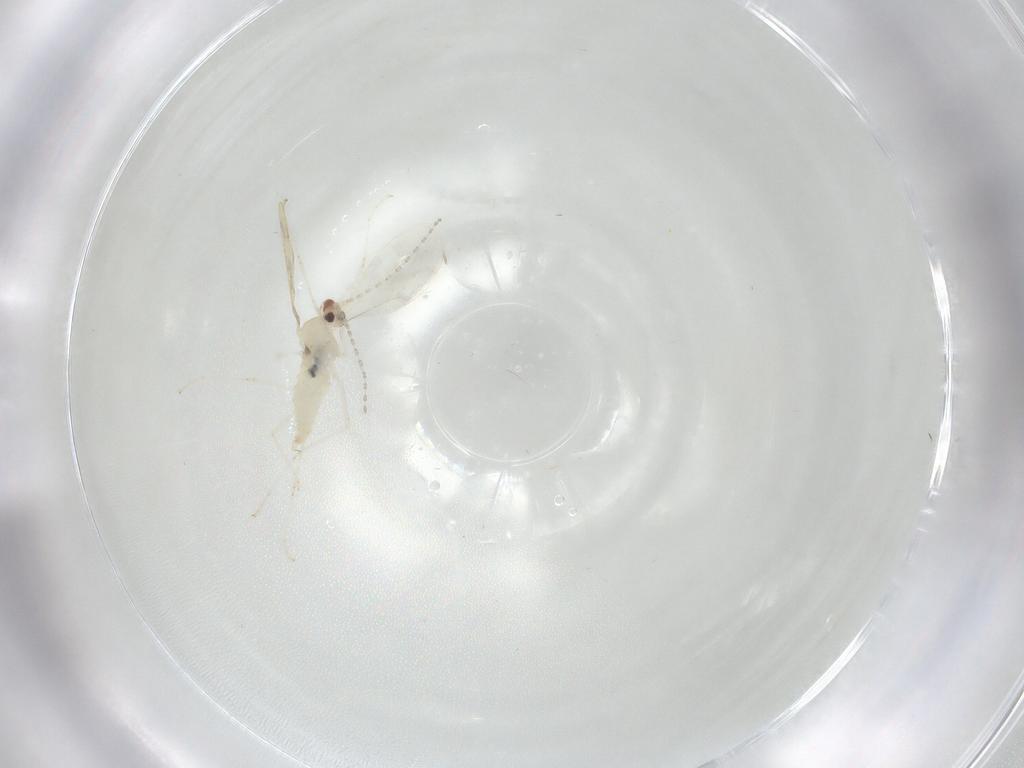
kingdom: Animalia
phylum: Arthropoda
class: Insecta
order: Diptera
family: Cecidomyiidae
